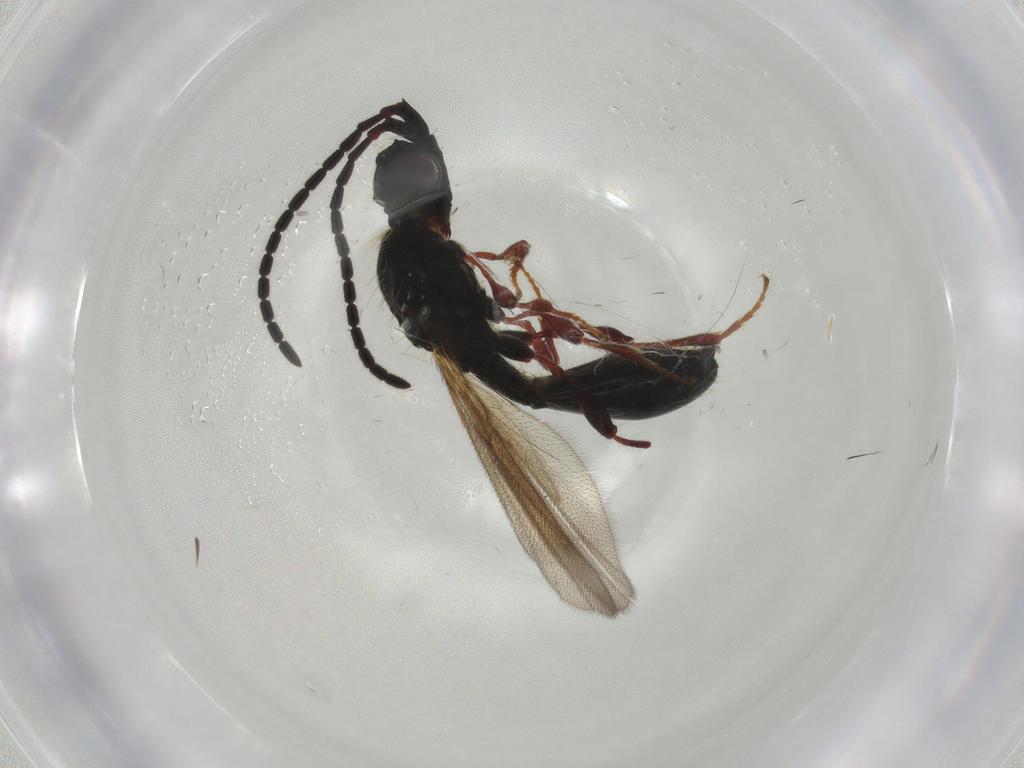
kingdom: Animalia
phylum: Arthropoda
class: Insecta
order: Hymenoptera
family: Diapriidae
